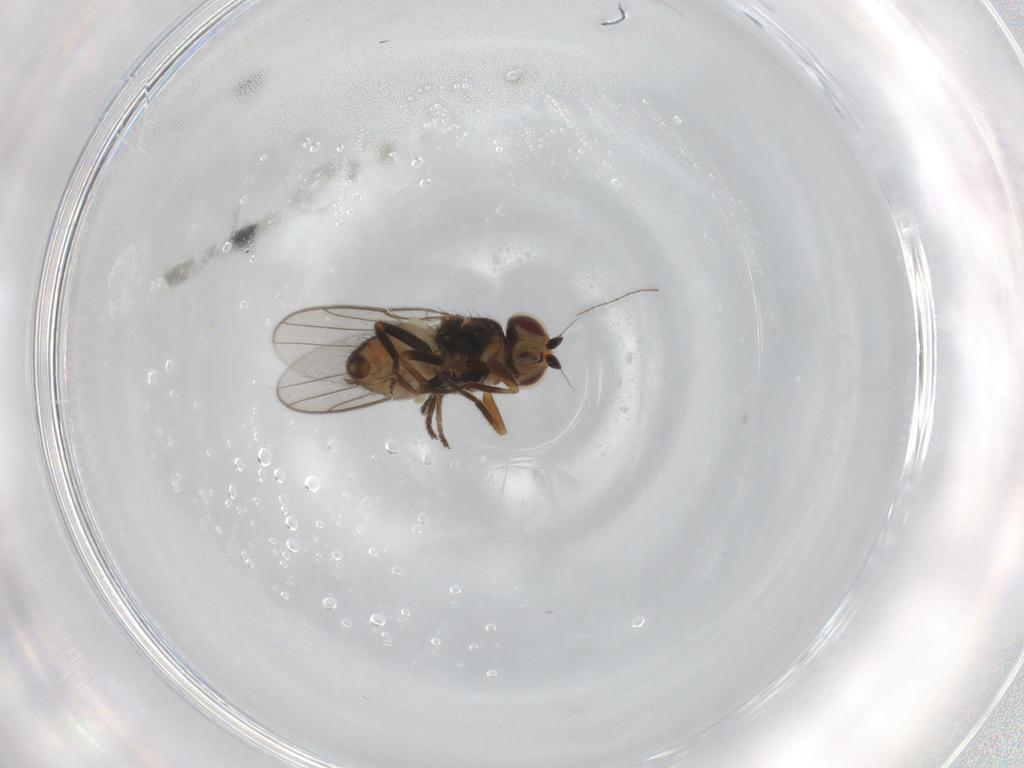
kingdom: Animalia
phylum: Arthropoda
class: Insecta
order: Diptera
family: Chloropidae
